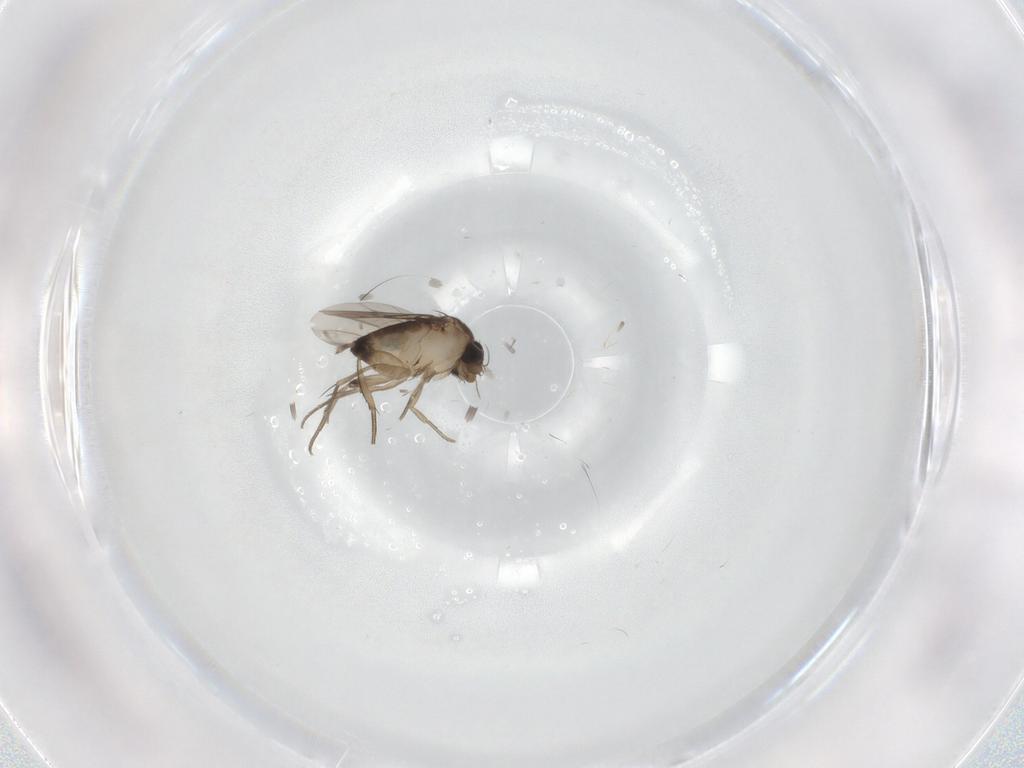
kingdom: Animalia
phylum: Arthropoda
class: Insecta
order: Diptera
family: Phoridae
